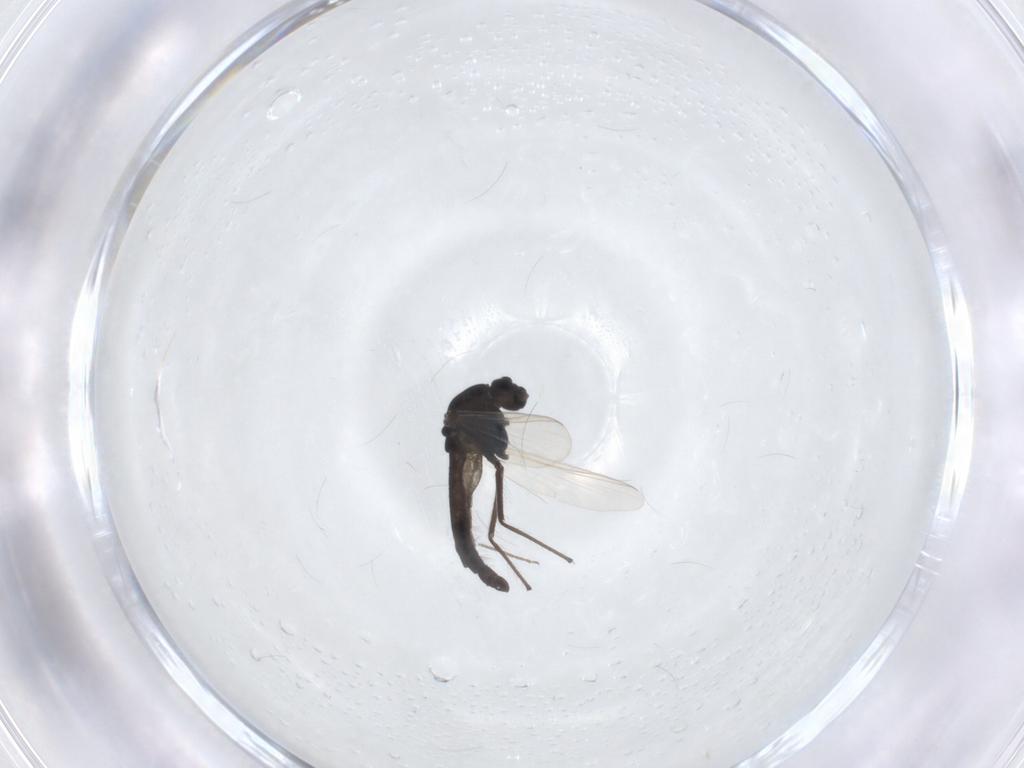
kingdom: Animalia
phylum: Arthropoda
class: Insecta
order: Diptera
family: Chironomidae
